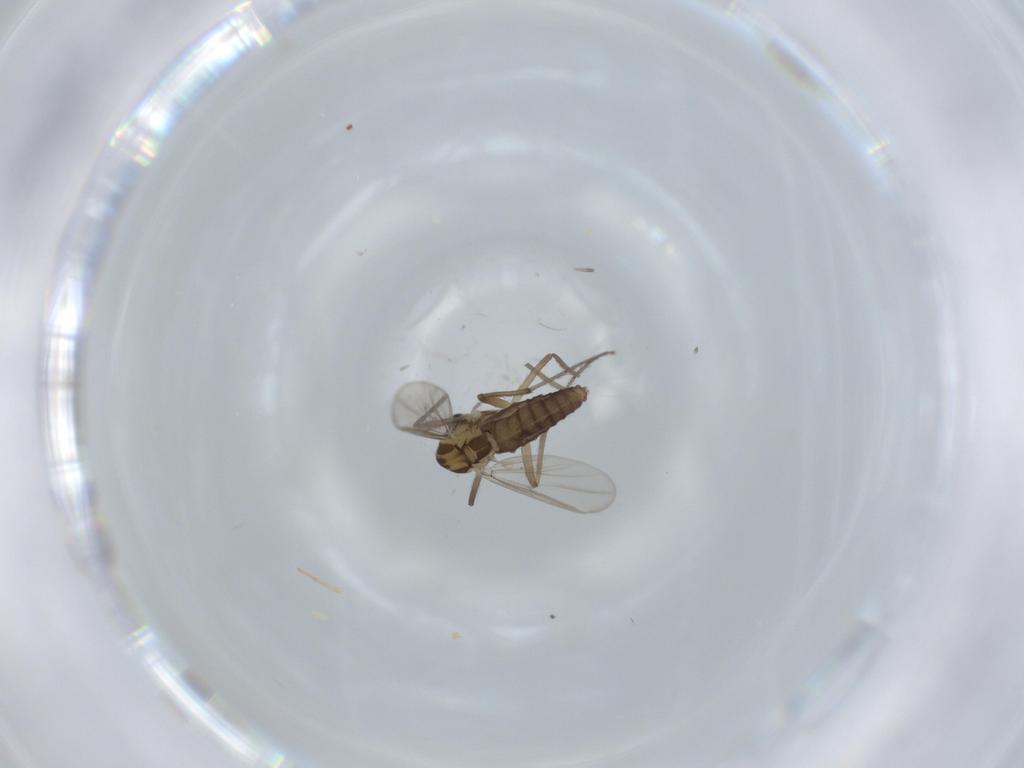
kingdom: Animalia
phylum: Arthropoda
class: Insecta
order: Diptera
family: Chironomidae
